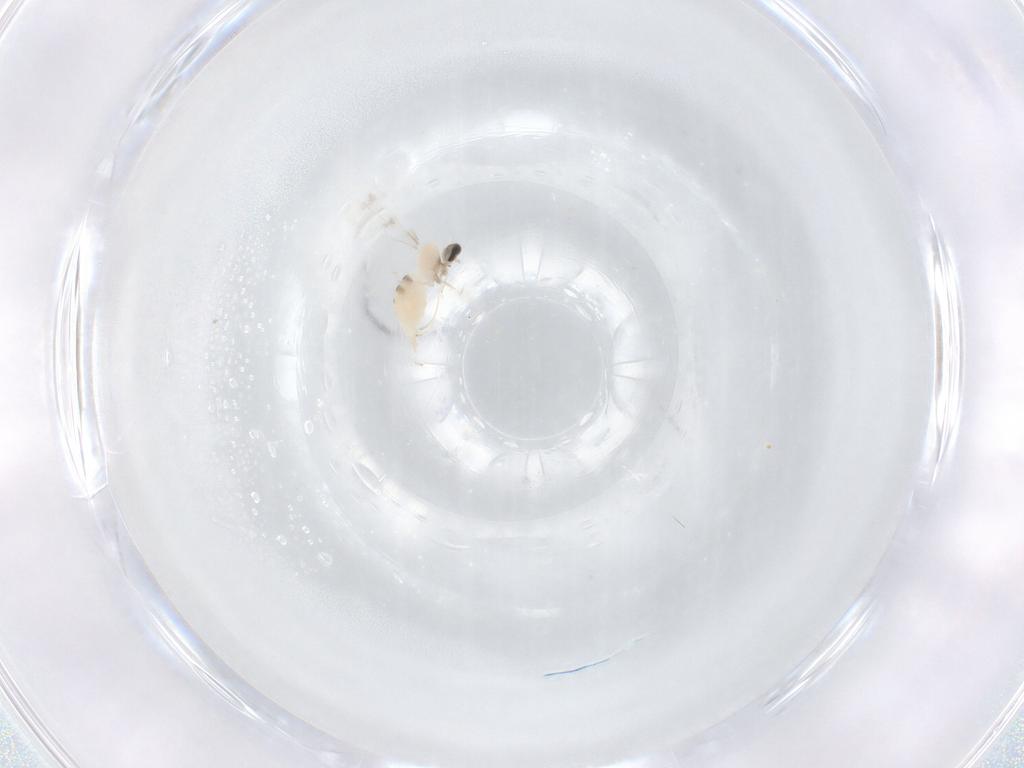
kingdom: Animalia
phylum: Arthropoda
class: Insecta
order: Diptera
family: Cecidomyiidae
